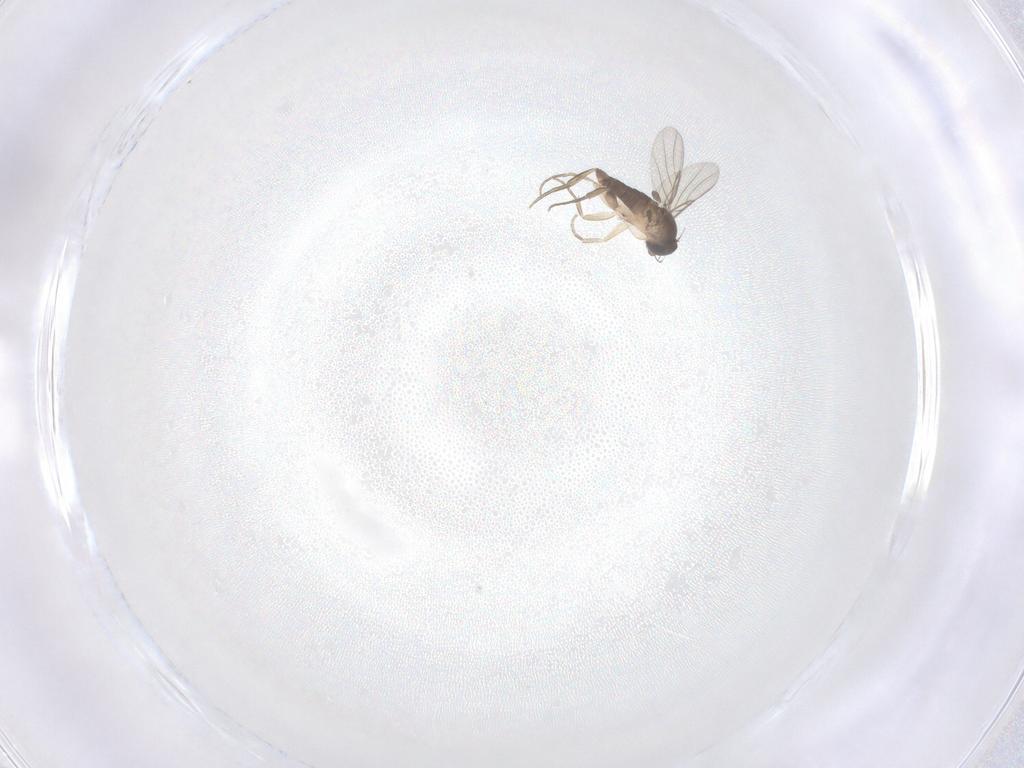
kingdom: Animalia
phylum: Arthropoda
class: Insecta
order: Diptera
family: Phoridae
